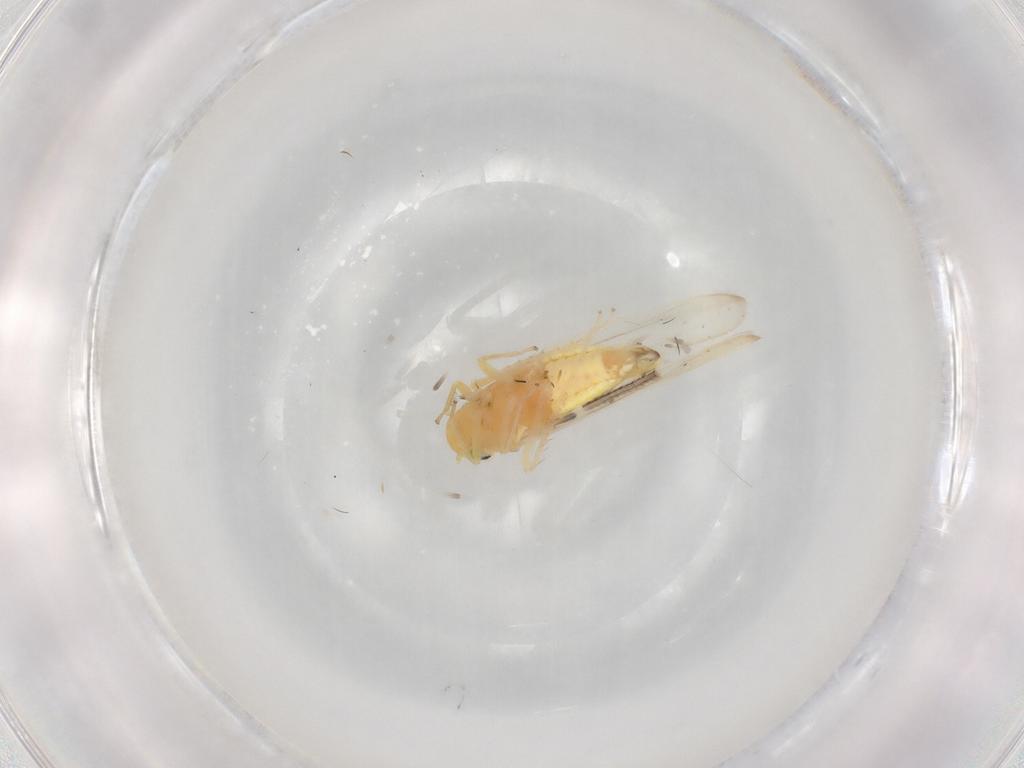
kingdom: Animalia
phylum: Arthropoda
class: Insecta
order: Hemiptera
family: Cicadellidae
